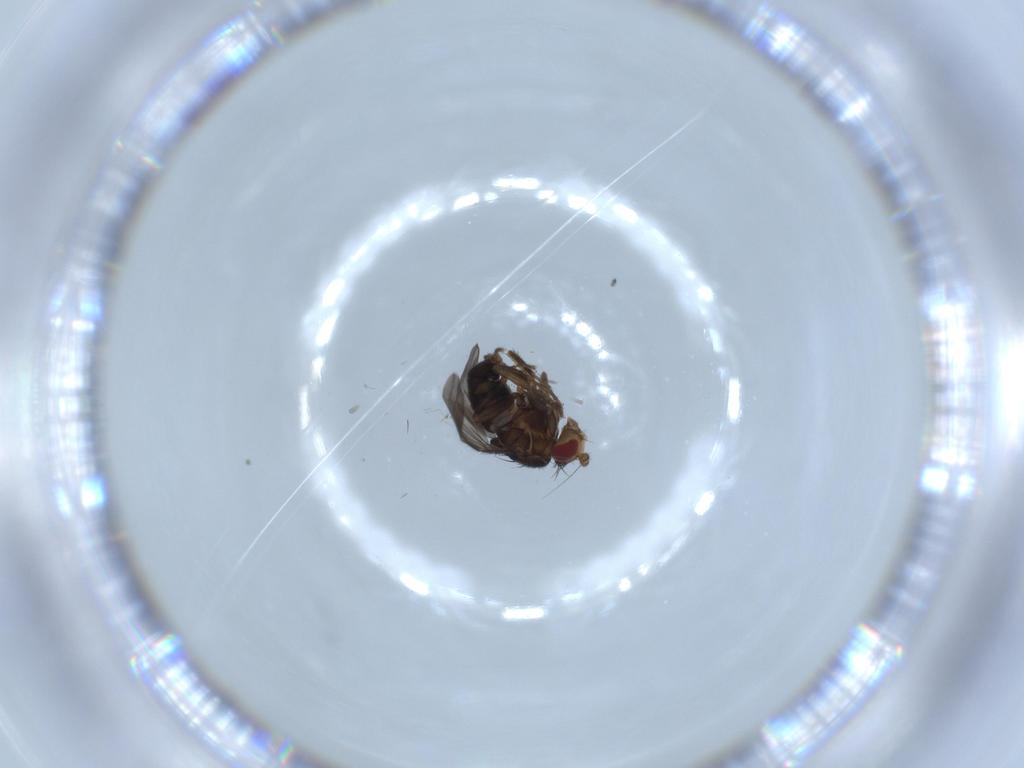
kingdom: Animalia
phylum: Arthropoda
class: Insecta
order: Diptera
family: Sphaeroceridae
